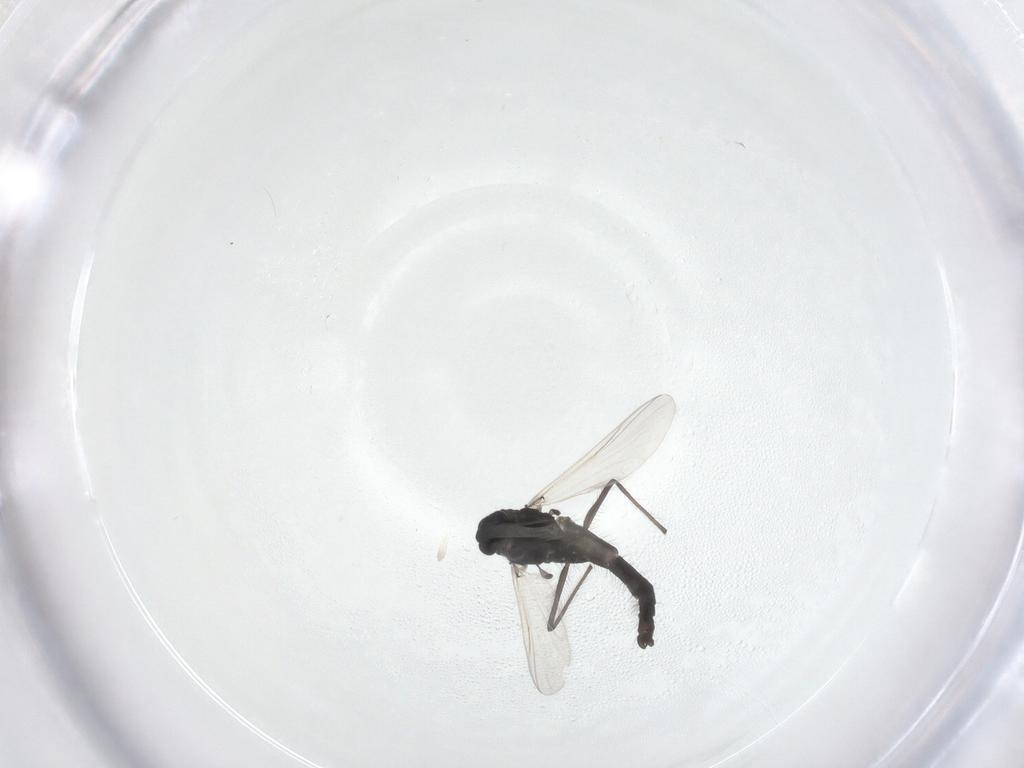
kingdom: Animalia
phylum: Arthropoda
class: Insecta
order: Diptera
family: Chironomidae
